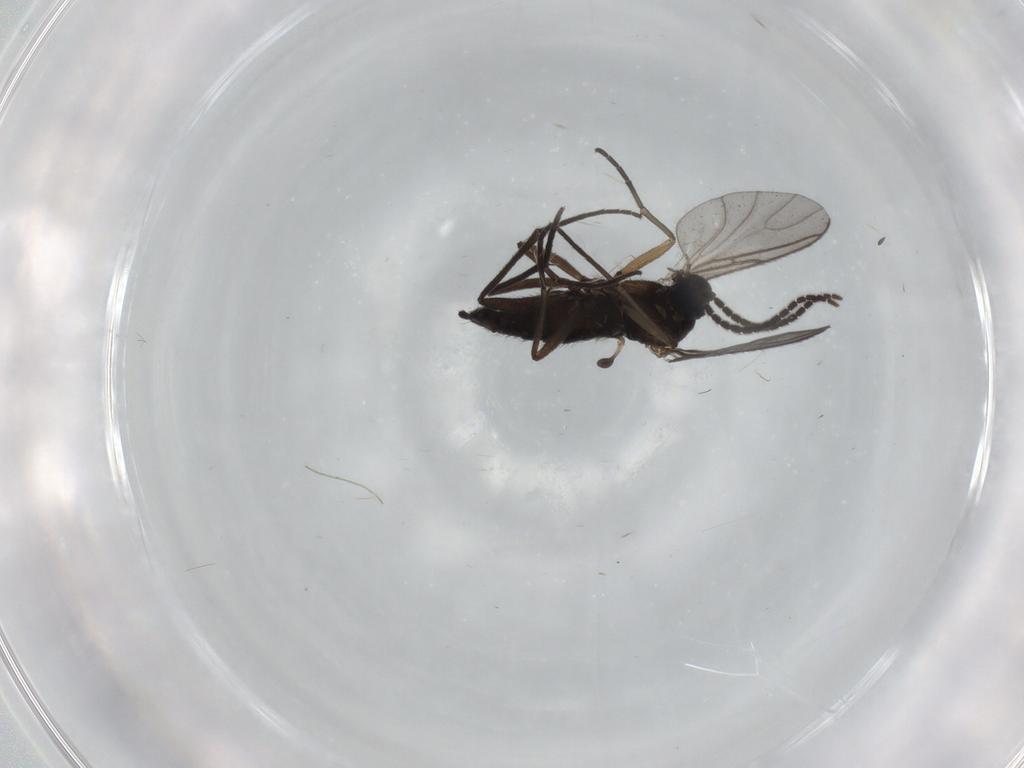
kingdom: Animalia
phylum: Arthropoda
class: Insecta
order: Diptera
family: Sciaridae
